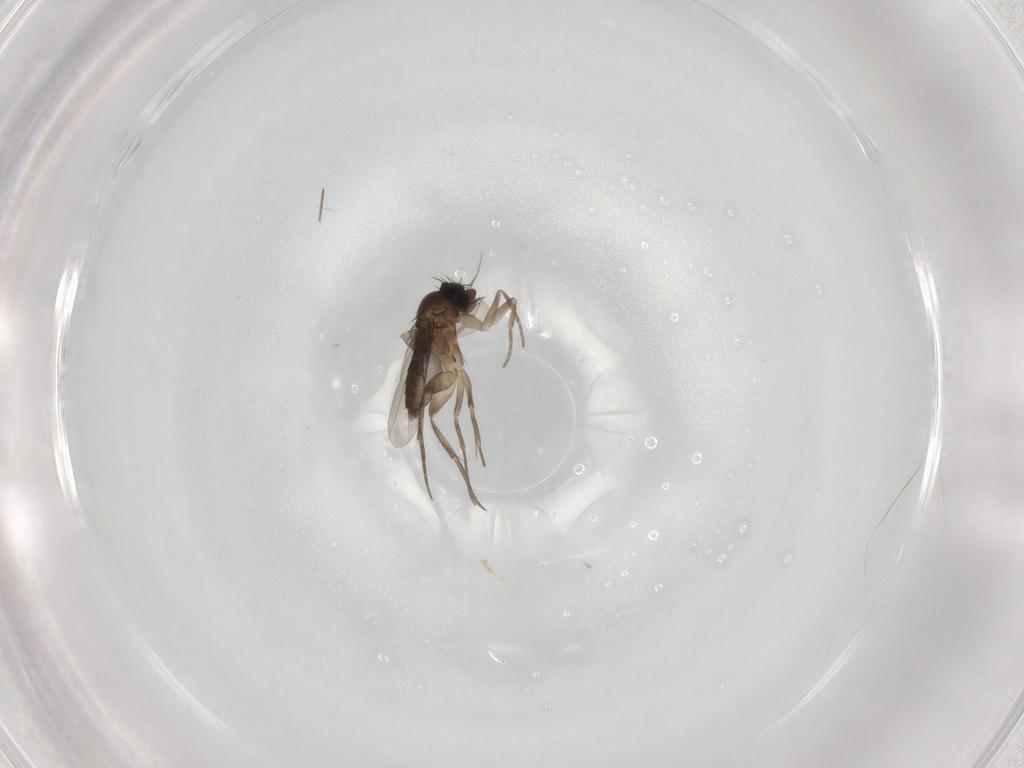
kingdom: Animalia
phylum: Arthropoda
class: Insecta
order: Diptera
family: Phoridae
